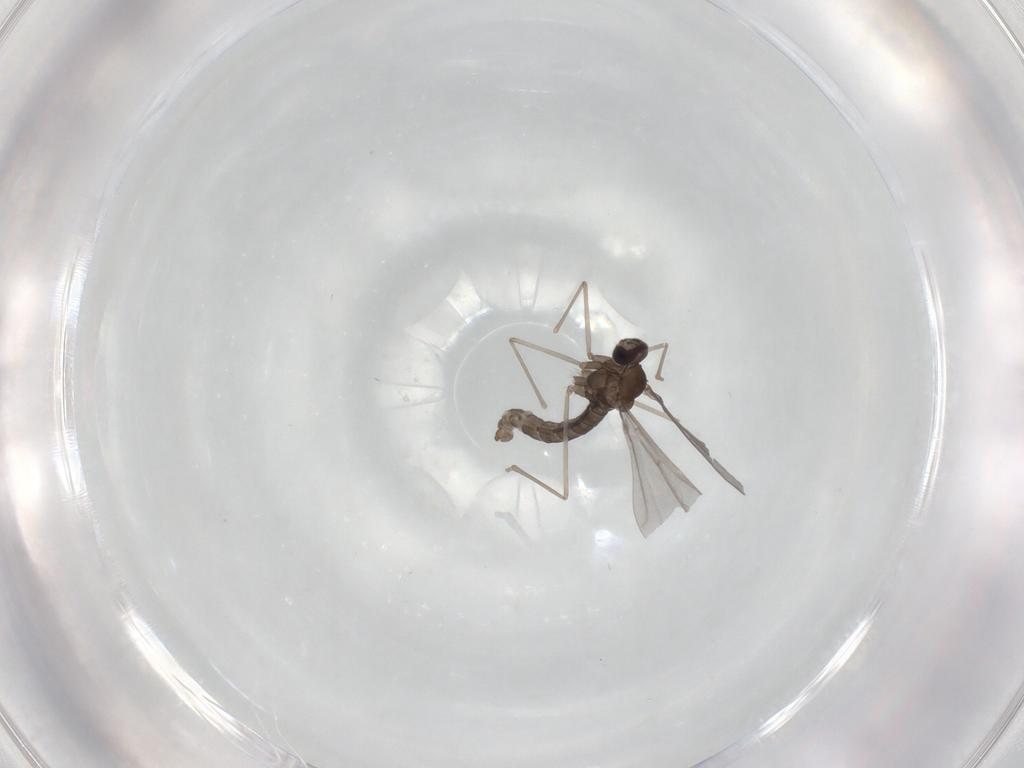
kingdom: Animalia
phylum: Arthropoda
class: Insecta
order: Diptera
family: Cecidomyiidae
